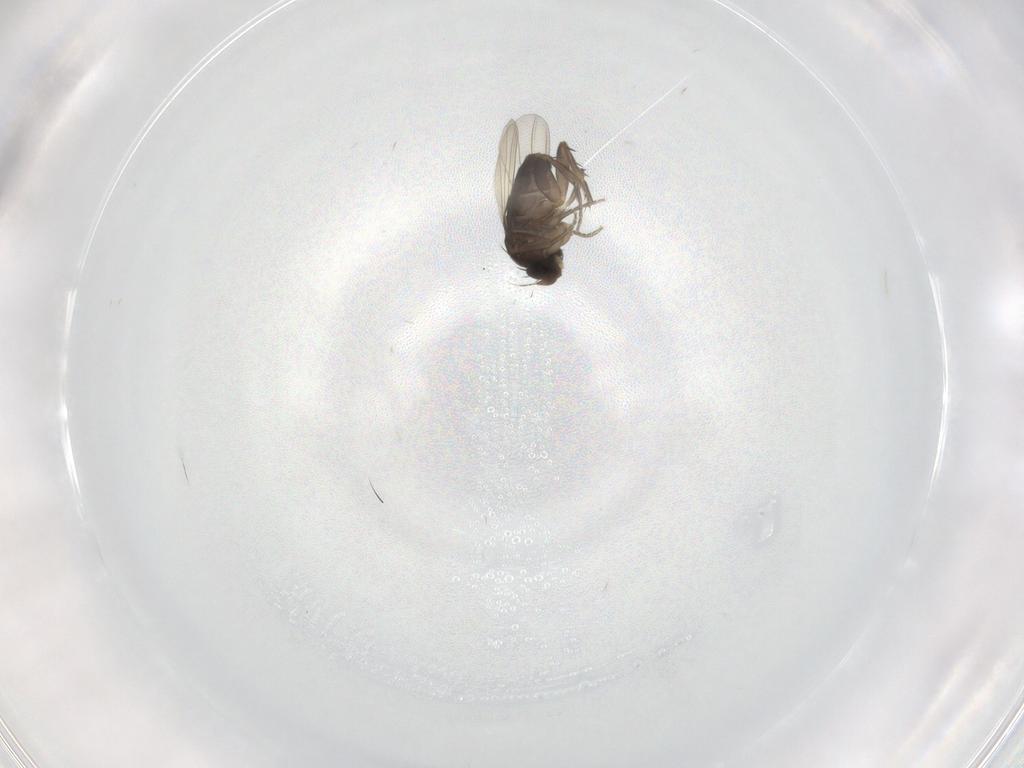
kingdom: Animalia
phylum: Arthropoda
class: Insecta
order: Diptera
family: Phoridae
